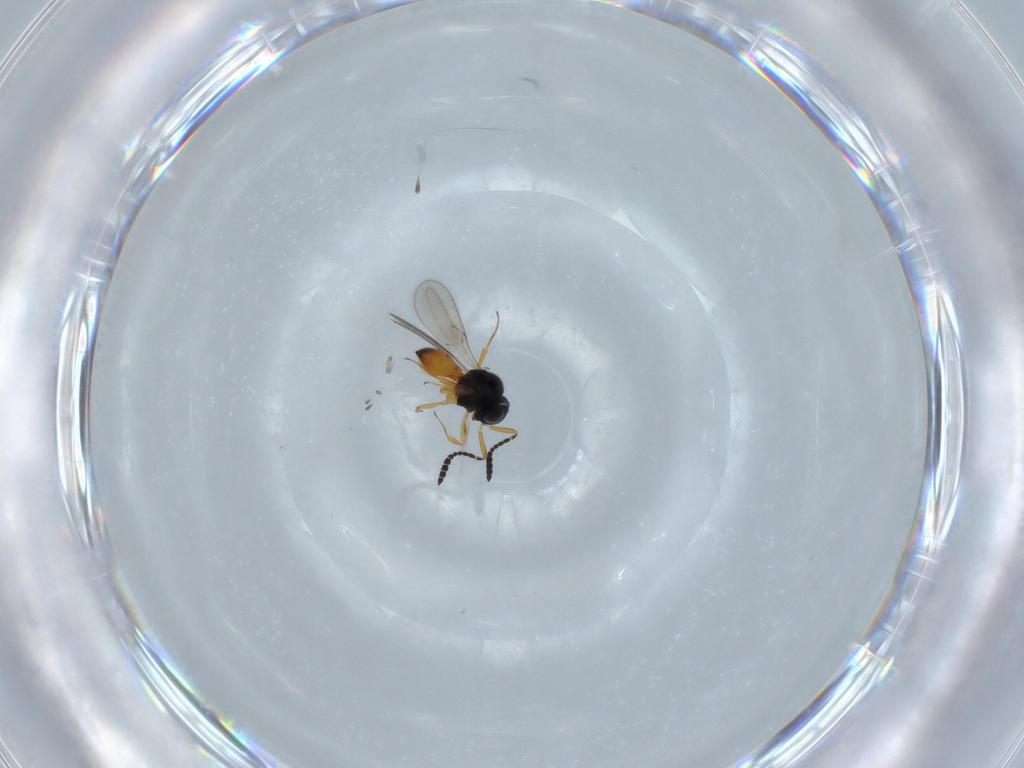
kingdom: Animalia
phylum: Arthropoda
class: Insecta
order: Hymenoptera
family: Scelionidae
